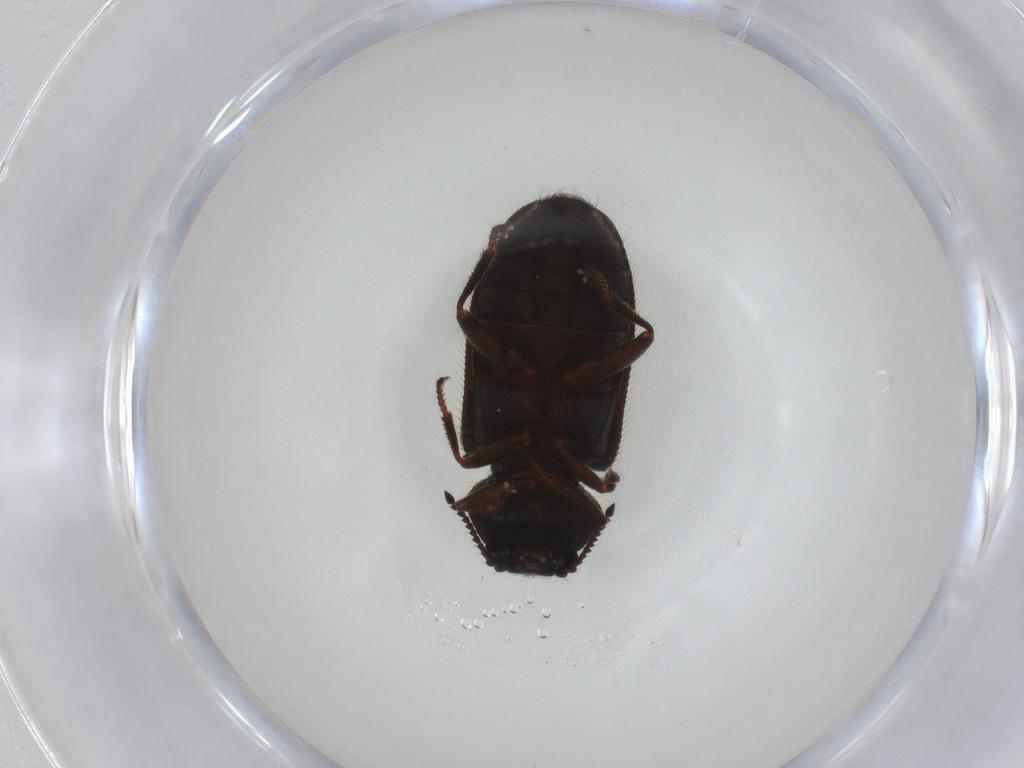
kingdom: Animalia
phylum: Arthropoda
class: Insecta
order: Coleoptera
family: Dasytidae
